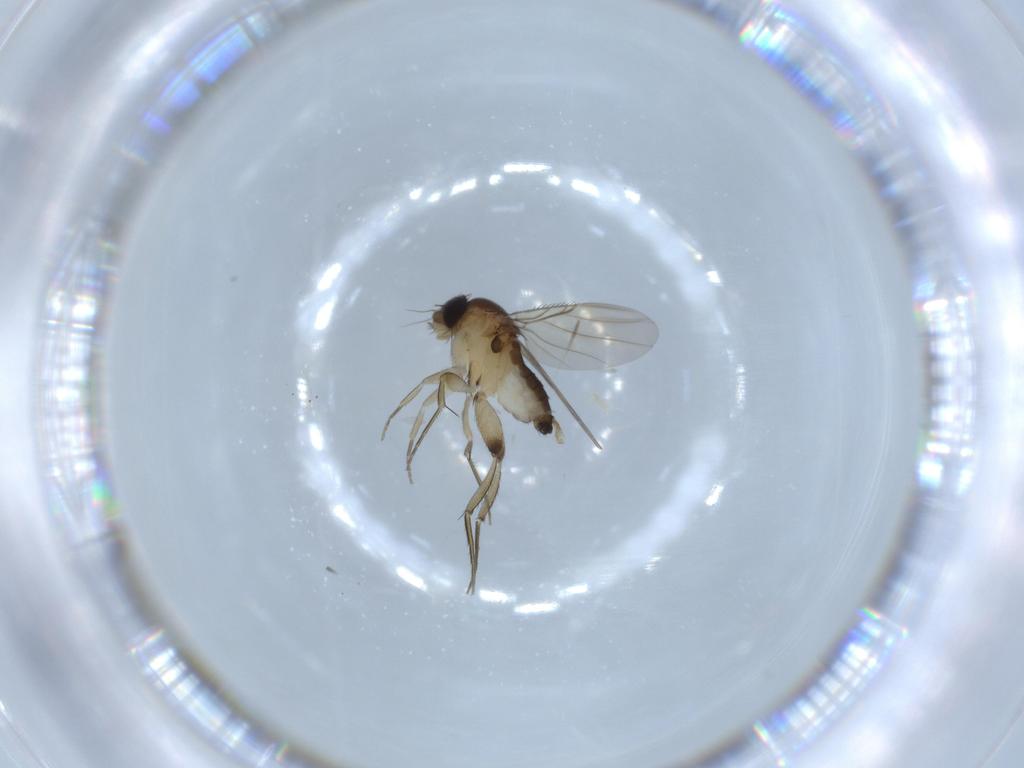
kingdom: Animalia
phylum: Arthropoda
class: Insecta
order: Diptera
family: Phoridae
